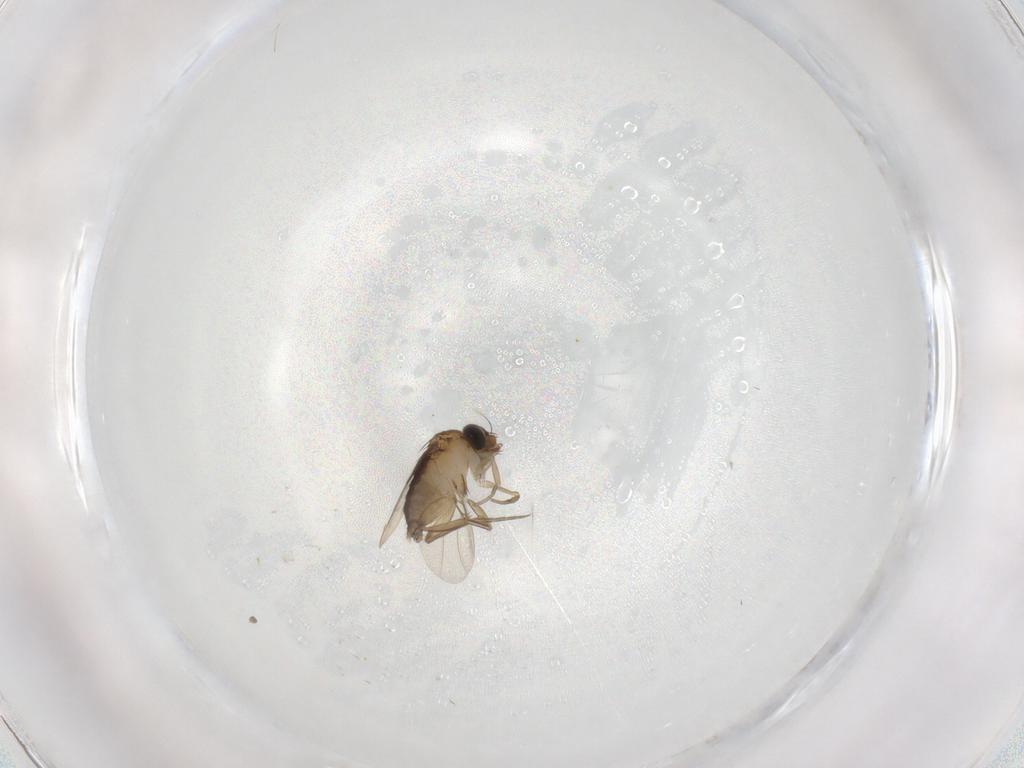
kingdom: Animalia
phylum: Arthropoda
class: Insecta
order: Diptera
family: Phoridae
